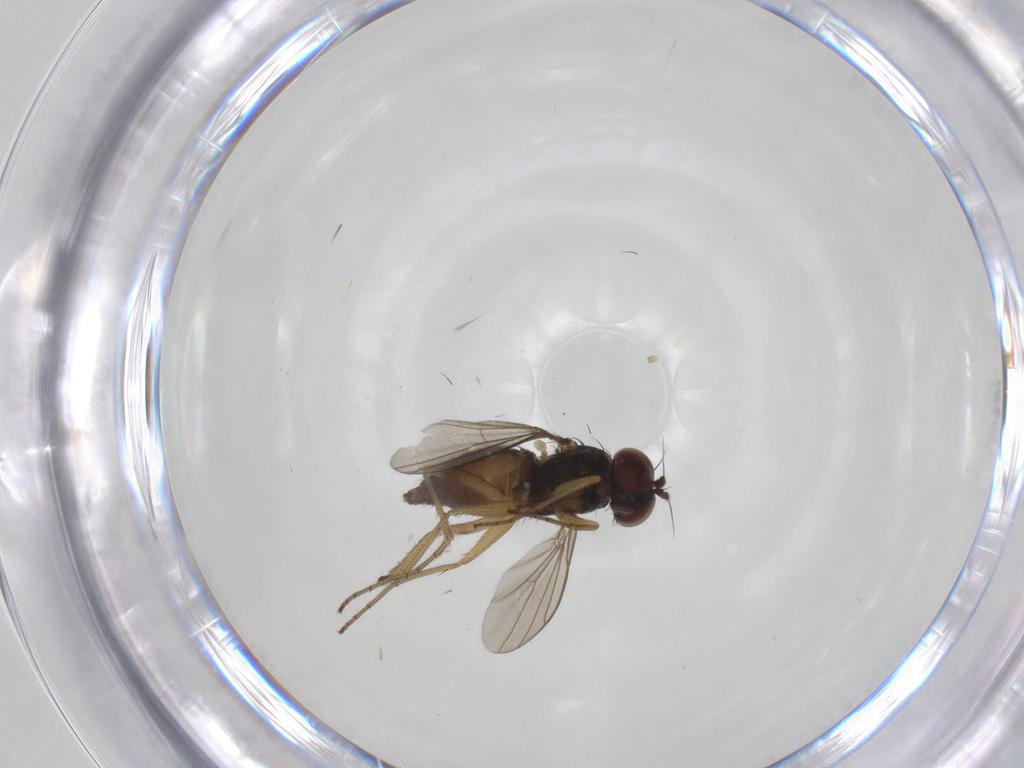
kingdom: Animalia
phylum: Arthropoda
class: Insecta
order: Diptera
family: Dolichopodidae
